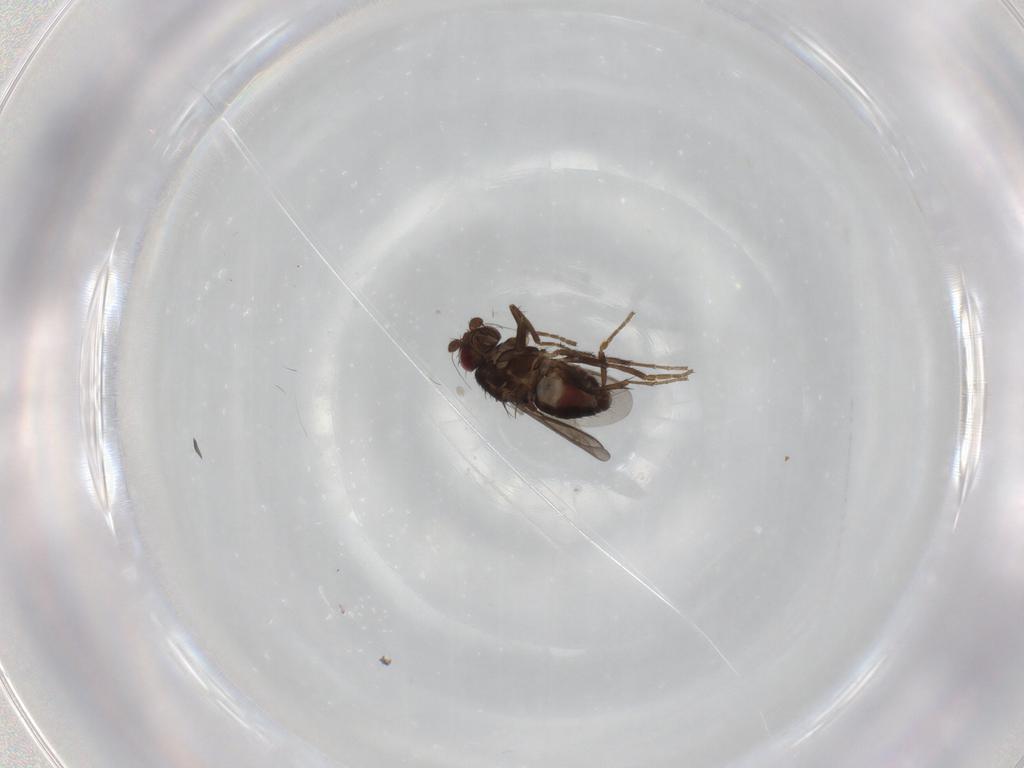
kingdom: Animalia
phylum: Arthropoda
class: Insecta
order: Diptera
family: Sphaeroceridae
